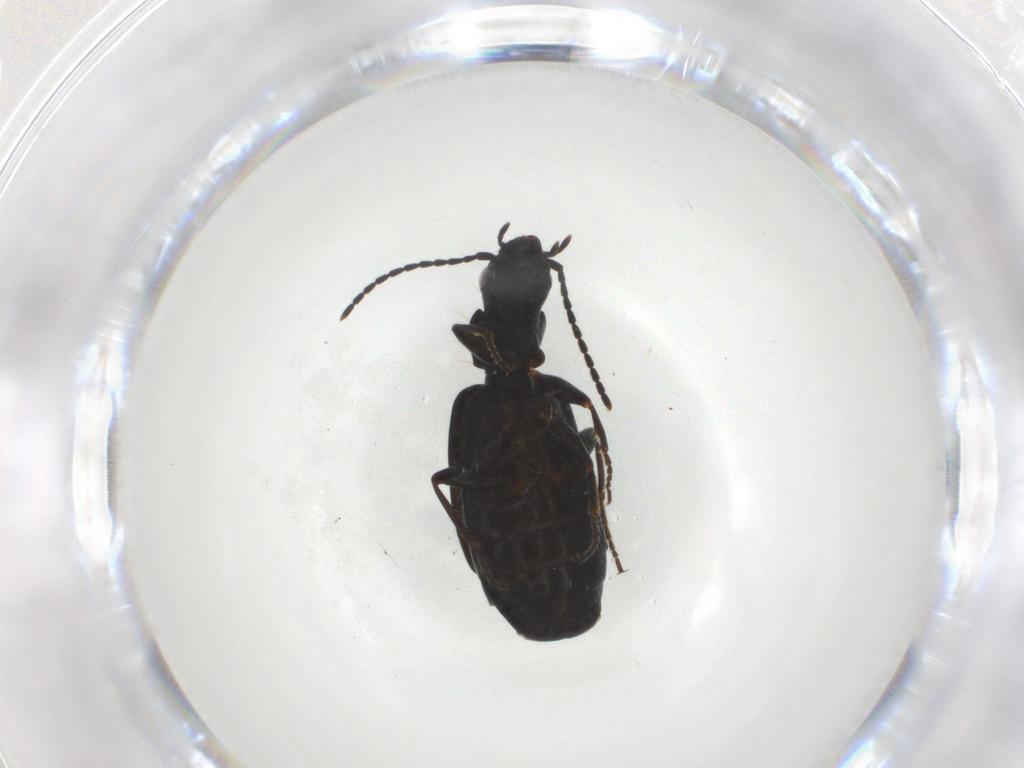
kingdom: Animalia
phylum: Arthropoda
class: Insecta
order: Coleoptera
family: Carabidae
